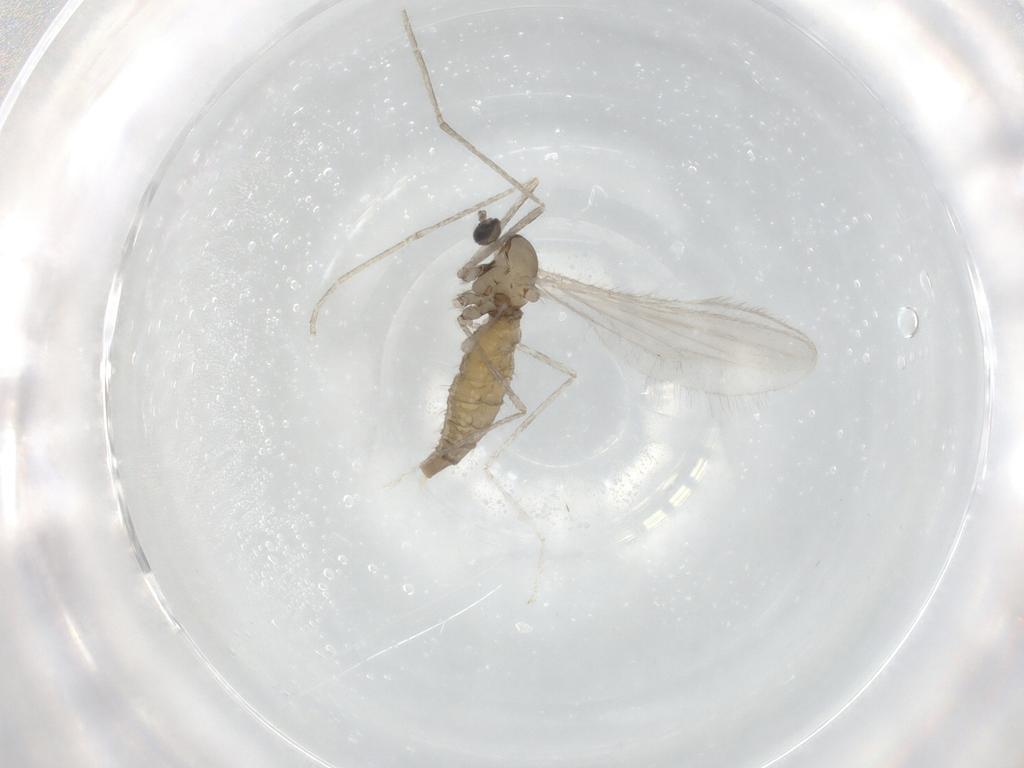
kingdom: Animalia
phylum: Arthropoda
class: Insecta
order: Diptera
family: Cecidomyiidae
